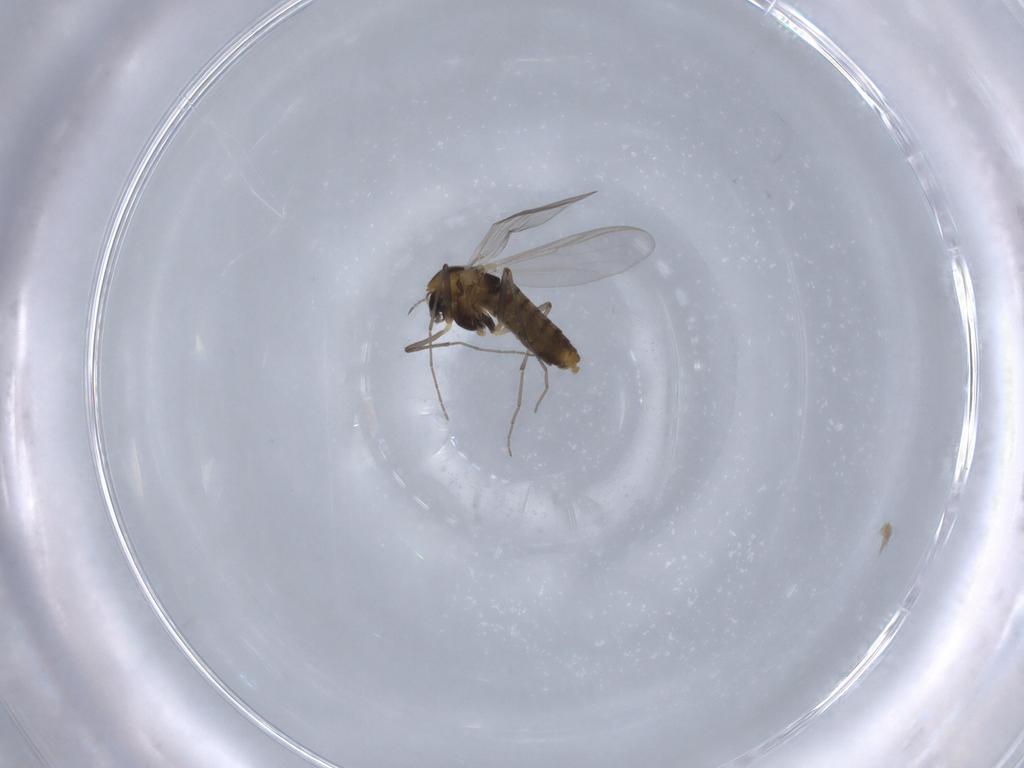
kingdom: Animalia
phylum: Arthropoda
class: Insecta
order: Diptera
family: Chironomidae
